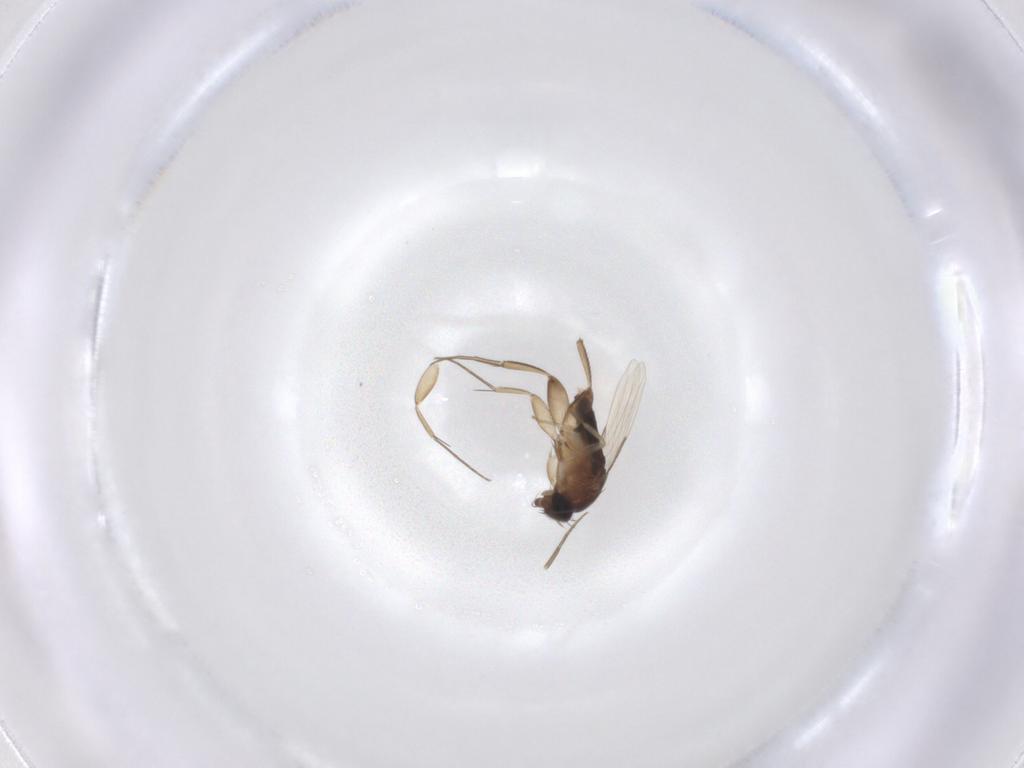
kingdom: Animalia
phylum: Arthropoda
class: Insecta
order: Diptera
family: Phoridae
